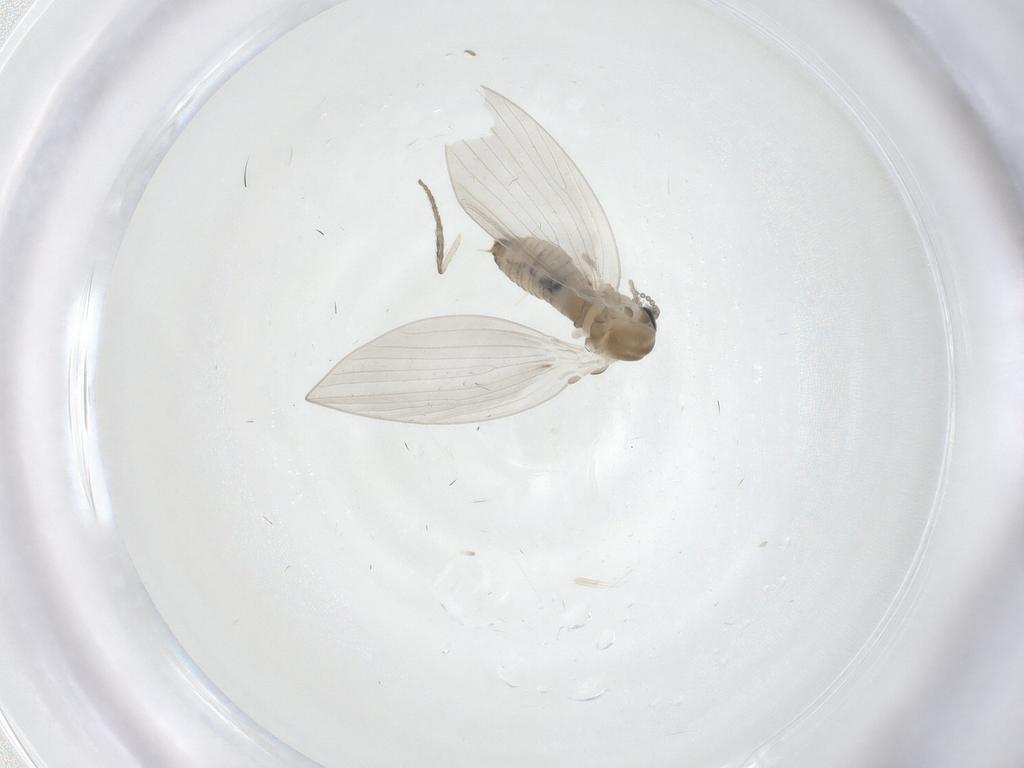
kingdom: Animalia
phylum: Arthropoda
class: Insecta
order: Diptera
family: Psychodidae
